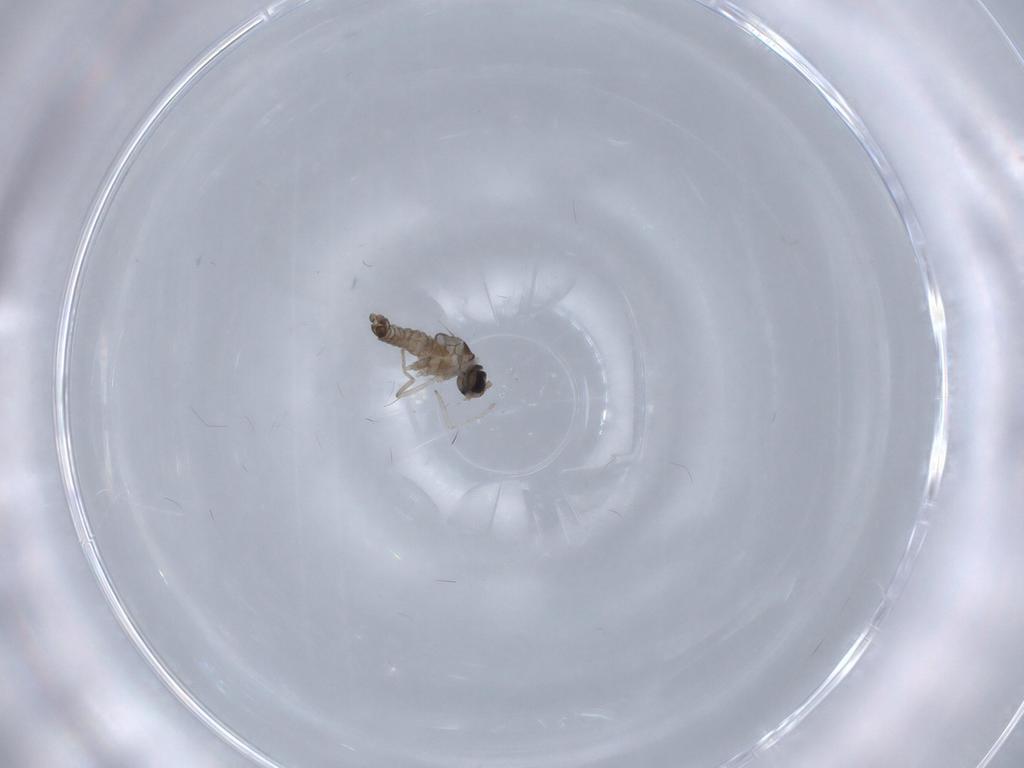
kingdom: Animalia
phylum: Arthropoda
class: Insecta
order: Diptera
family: Cecidomyiidae
